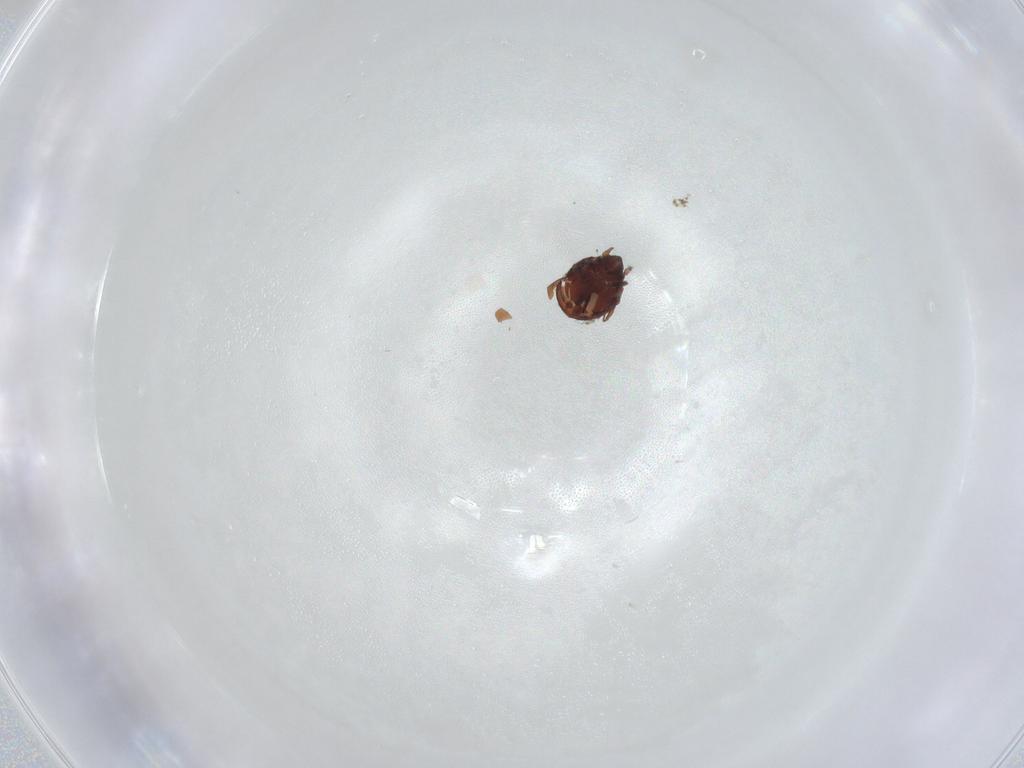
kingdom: Animalia
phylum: Arthropoda
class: Arachnida
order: Sarcoptiformes
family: Caloppiidae
